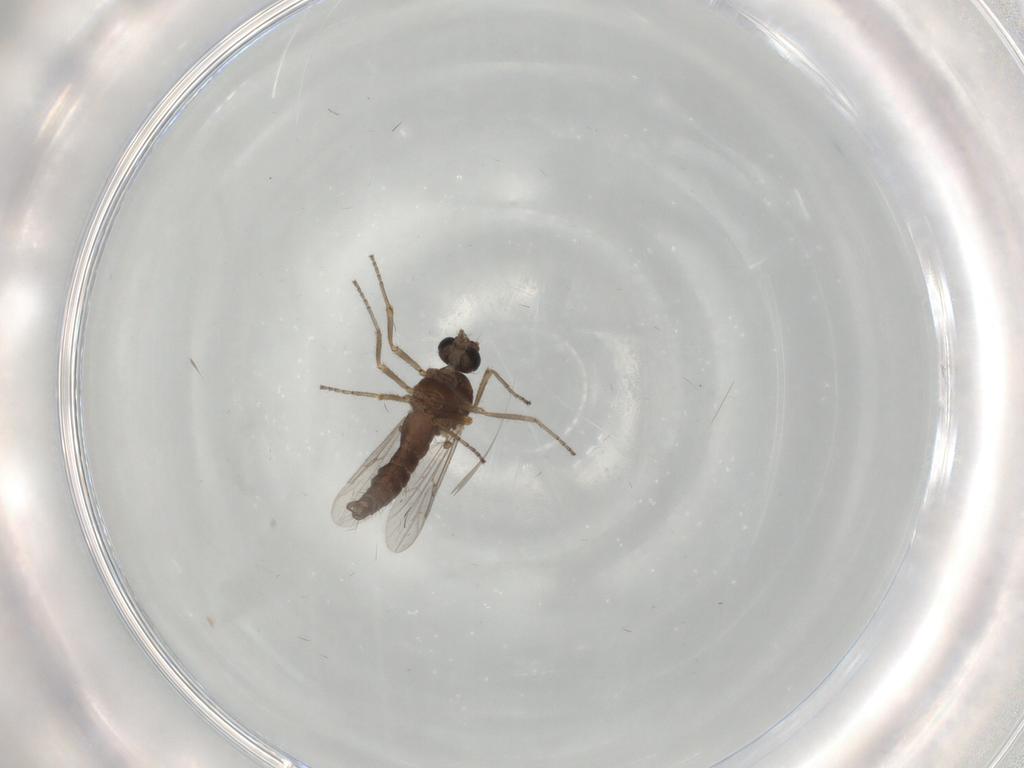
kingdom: Animalia
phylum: Arthropoda
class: Insecta
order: Diptera
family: Ceratopogonidae
